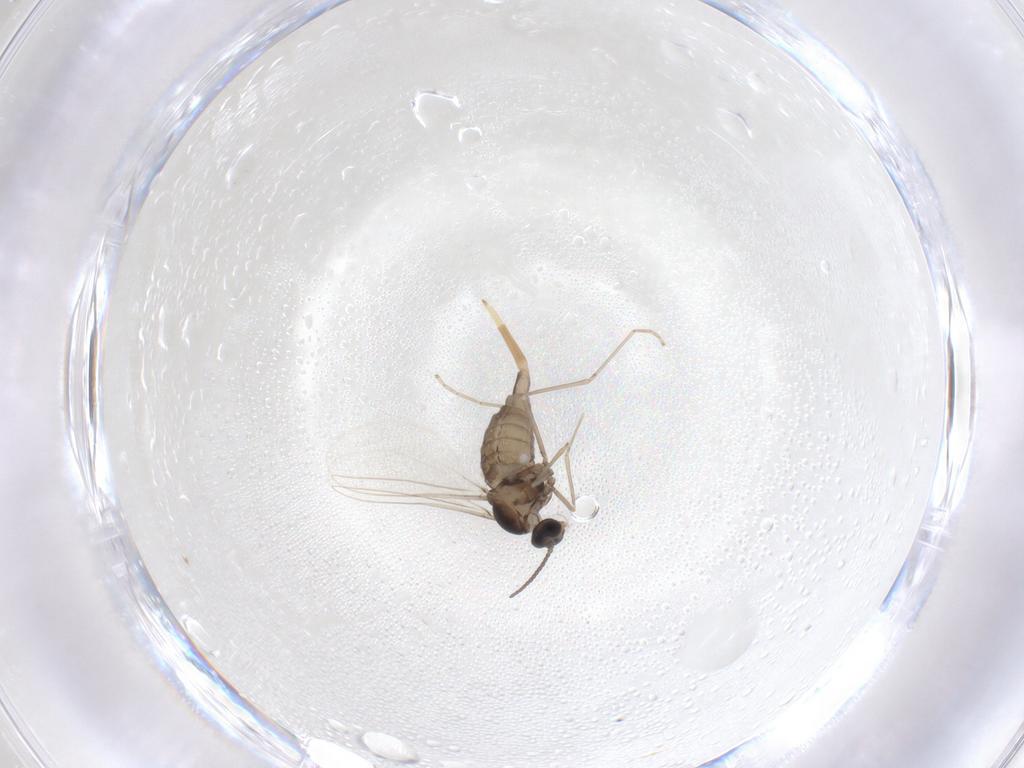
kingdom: Animalia
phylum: Arthropoda
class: Insecta
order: Diptera
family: Cecidomyiidae
